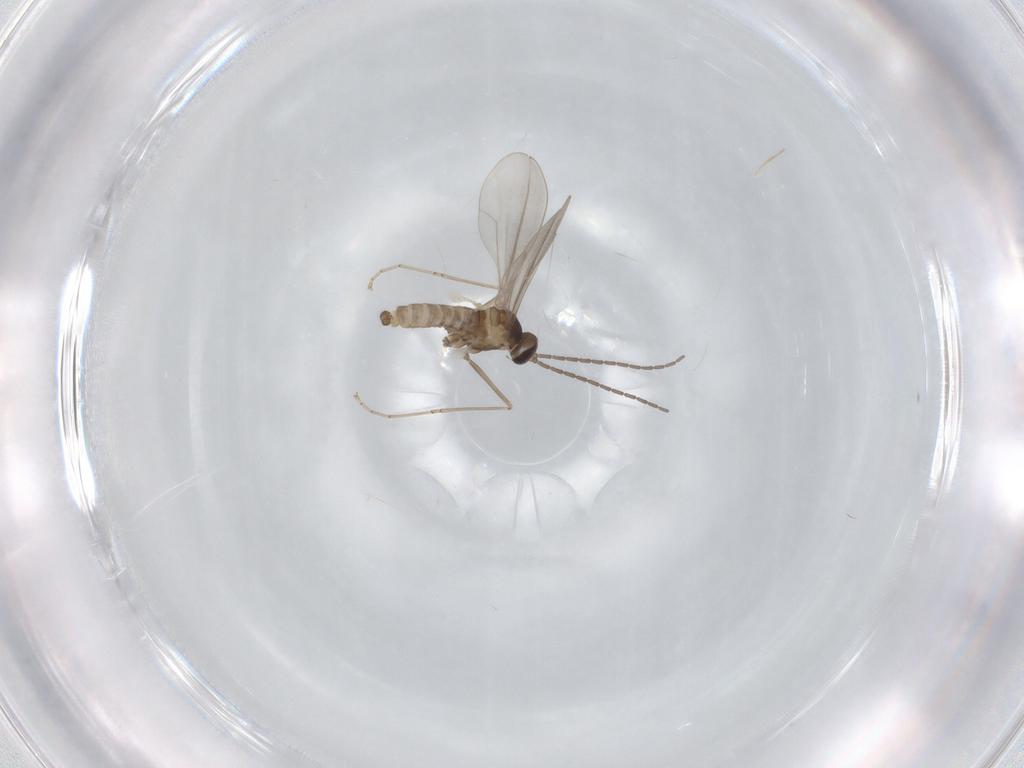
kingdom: Animalia
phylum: Arthropoda
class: Insecta
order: Diptera
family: Cecidomyiidae
